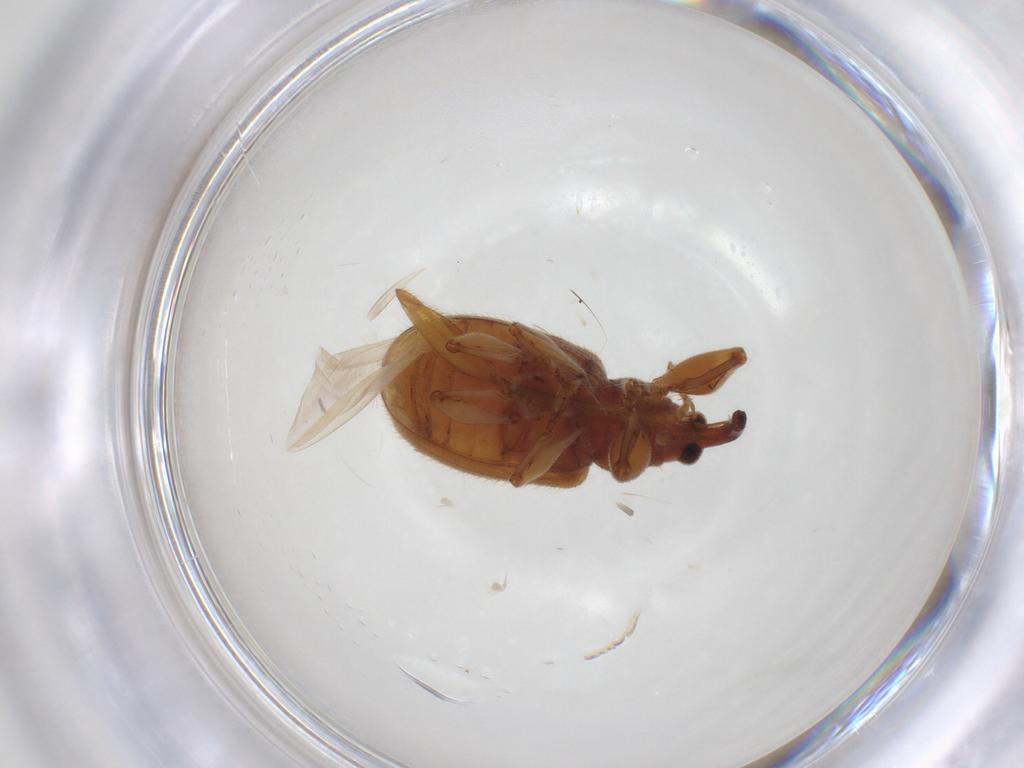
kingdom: Animalia
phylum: Arthropoda
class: Insecta
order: Coleoptera
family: Curculionidae
